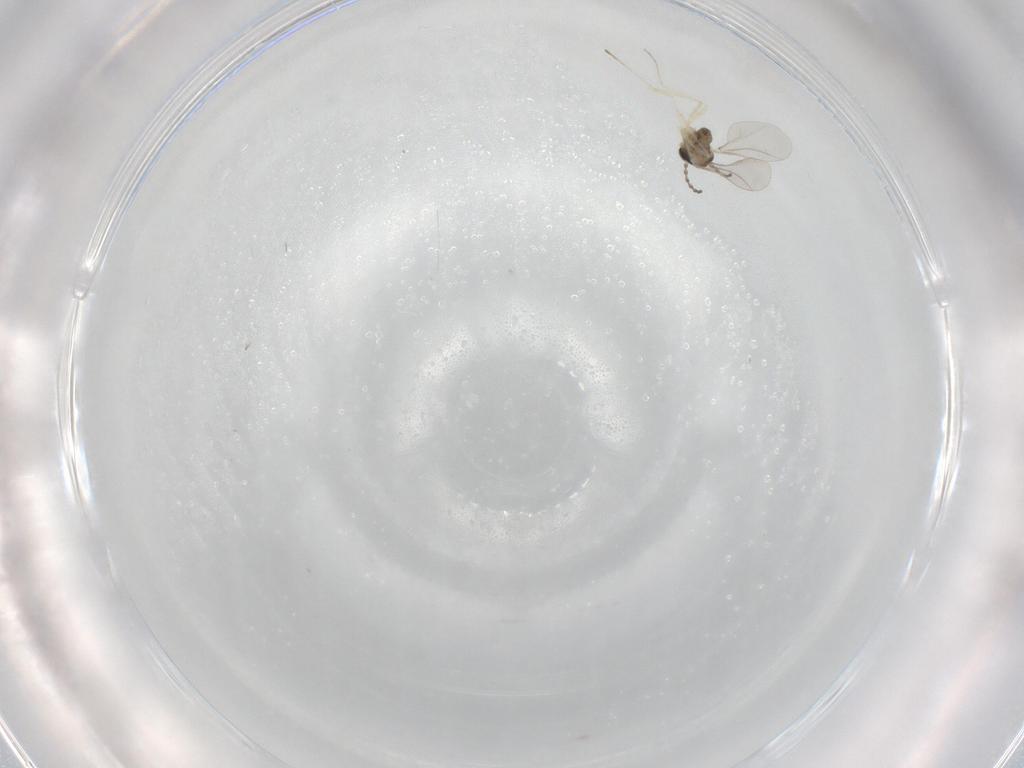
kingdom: Animalia
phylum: Arthropoda
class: Insecta
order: Diptera
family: Cecidomyiidae
